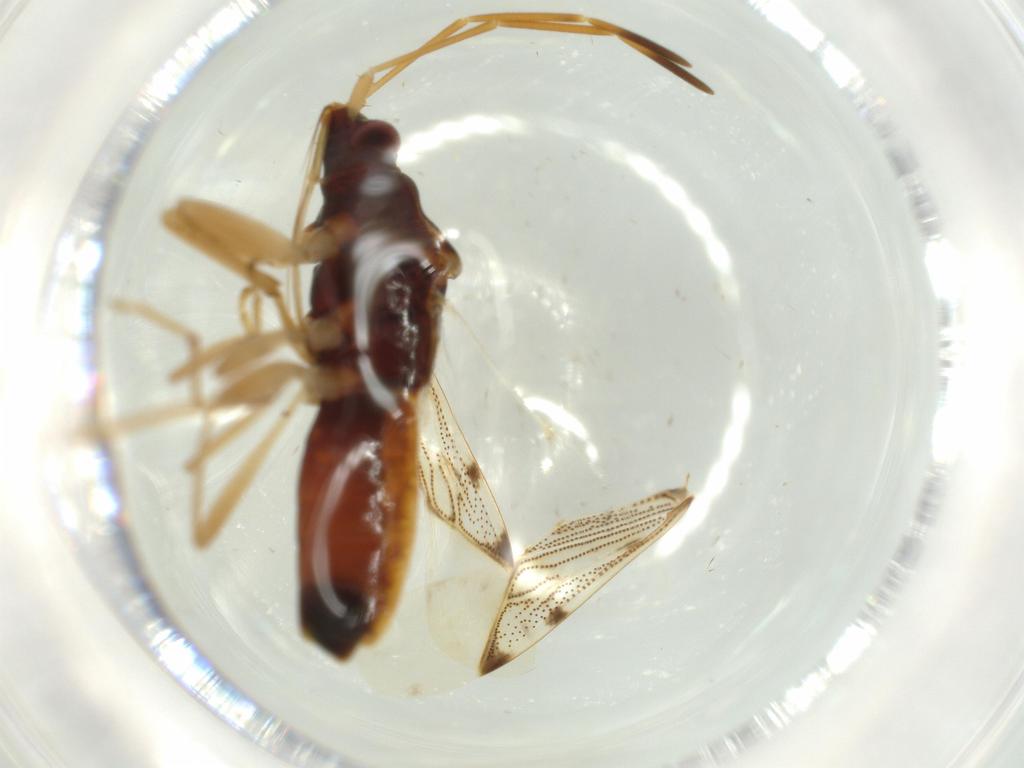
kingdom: Animalia
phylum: Arthropoda
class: Insecta
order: Hemiptera
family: Rhyparochromidae
